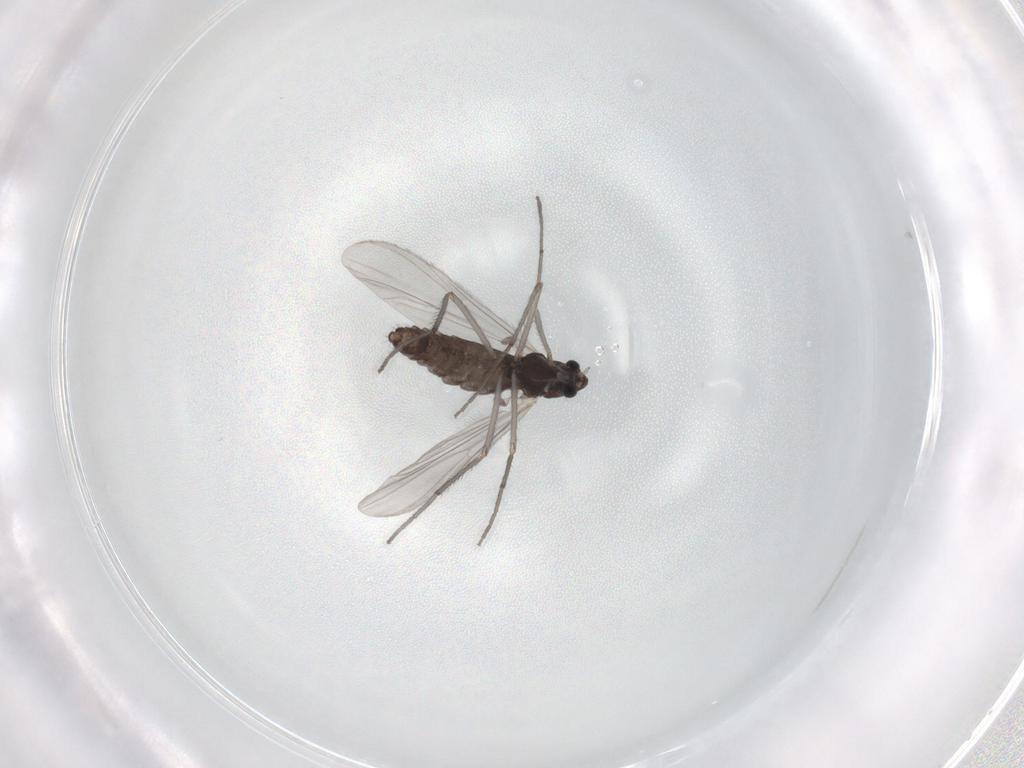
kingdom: Animalia
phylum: Arthropoda
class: Insecta
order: Diptera
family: Chironomidae
